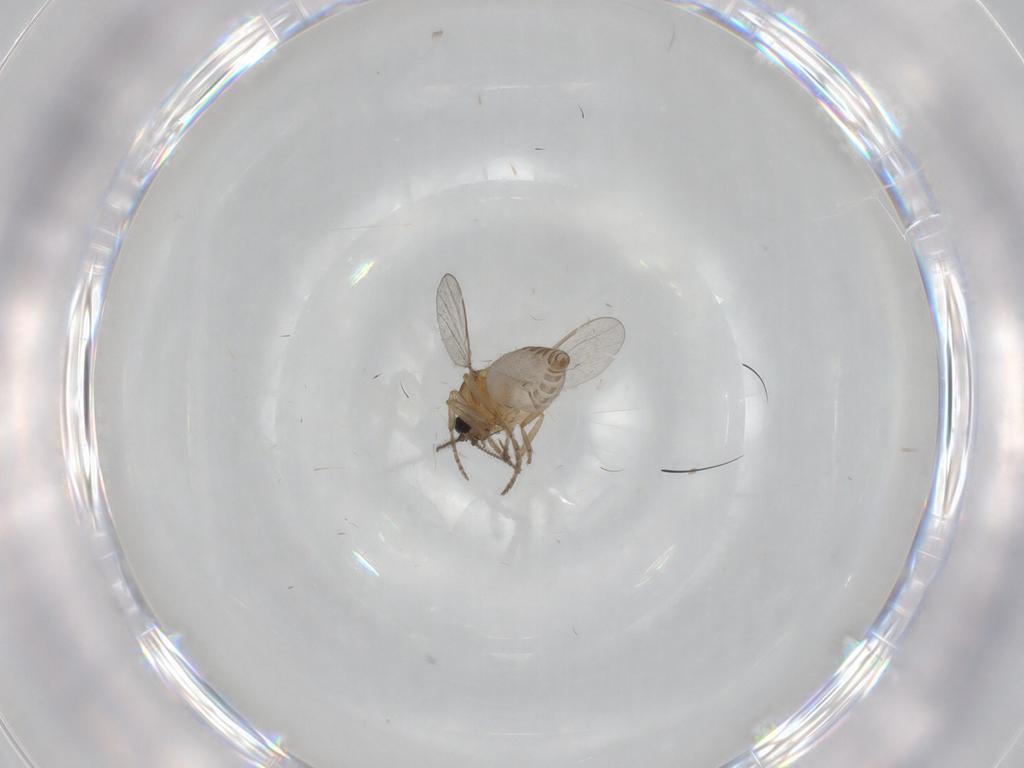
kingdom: Animalia
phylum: Arthropoda
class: Insecta
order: Diptera
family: Ceratopogonidae
